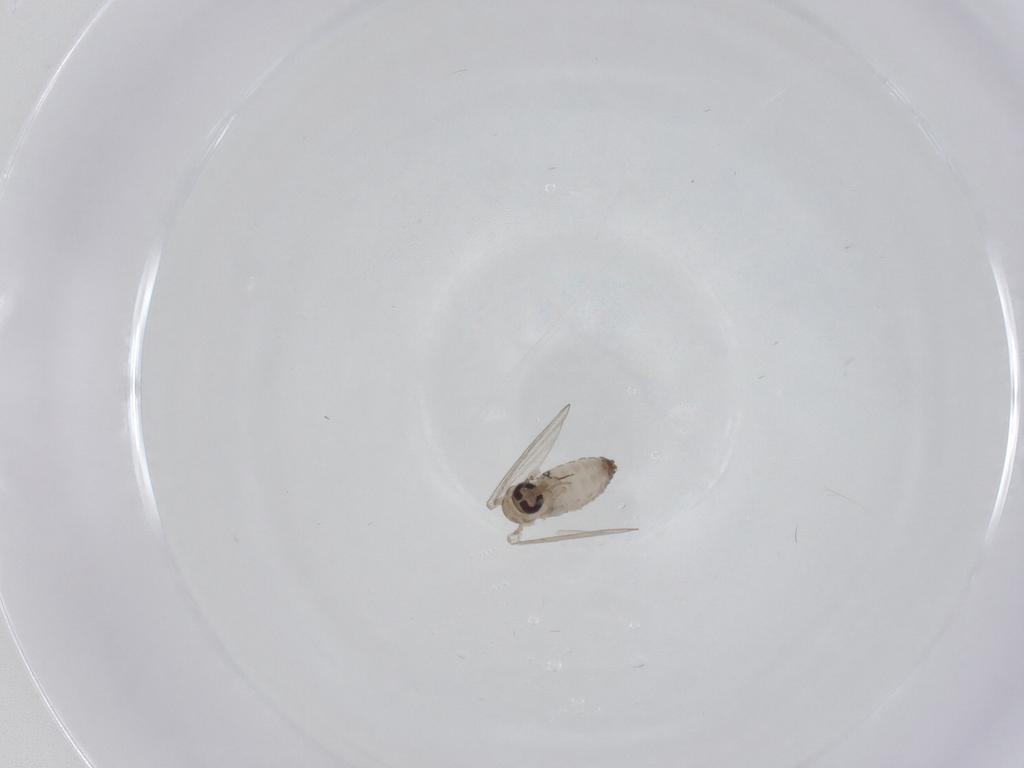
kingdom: Animalia
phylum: Arthropoda
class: Insecta
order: Diptera
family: Psychodidae
